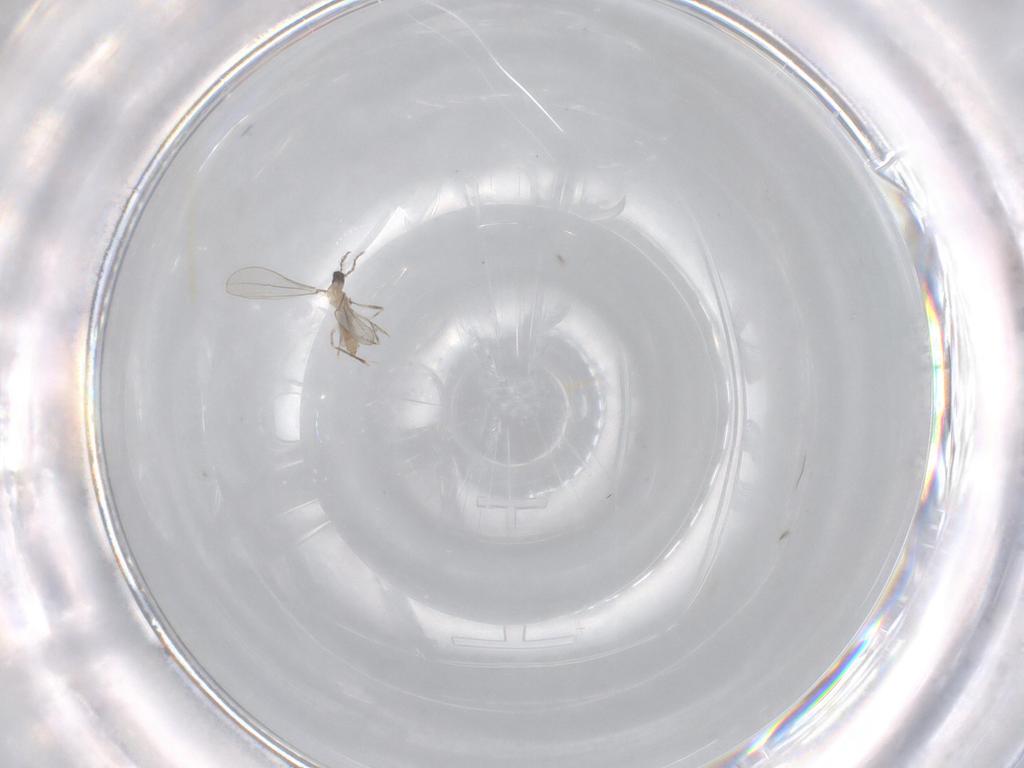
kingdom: Animalia
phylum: Arthropoda
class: Insecta
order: Diptera
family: Cecidomyiidae
